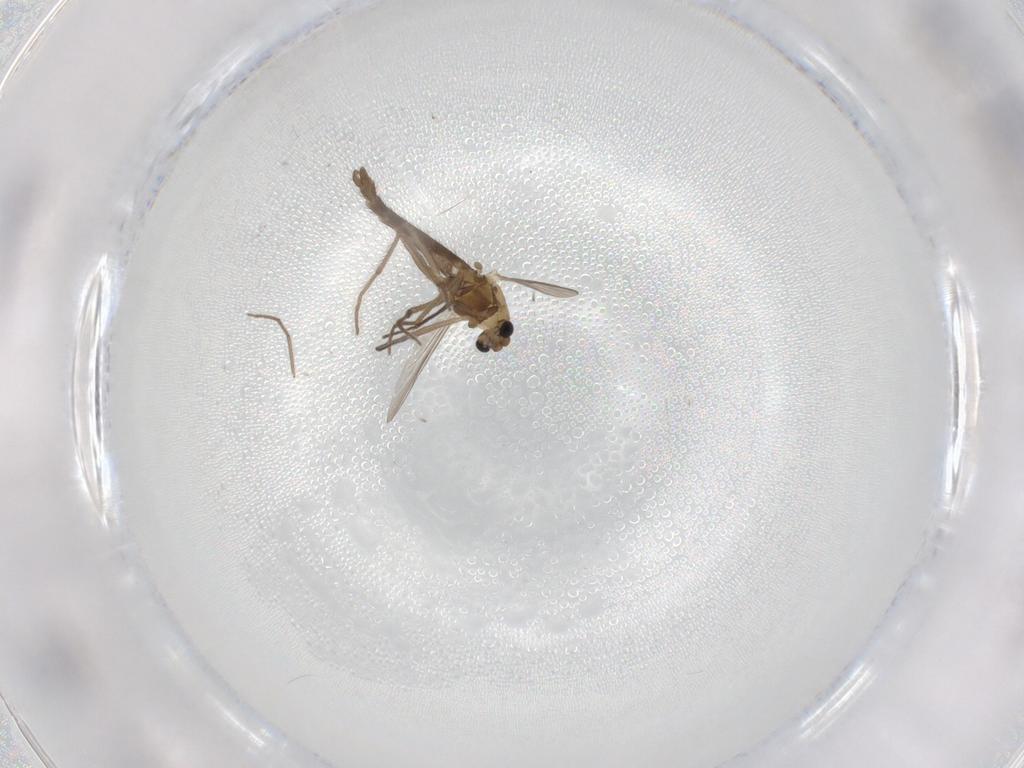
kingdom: Animalia
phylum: Arthropoda
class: Insecta
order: Diptera
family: Chironomidae
